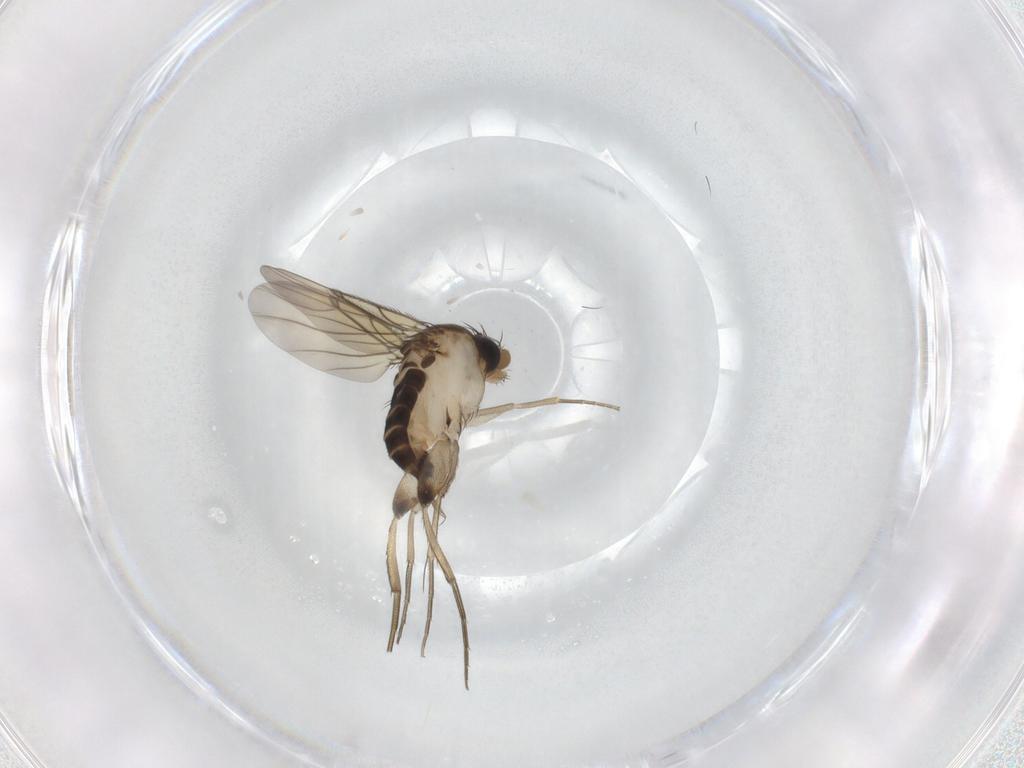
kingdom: Animalia
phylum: Arthropoda
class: Insecta
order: Diptera
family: Phoridae
